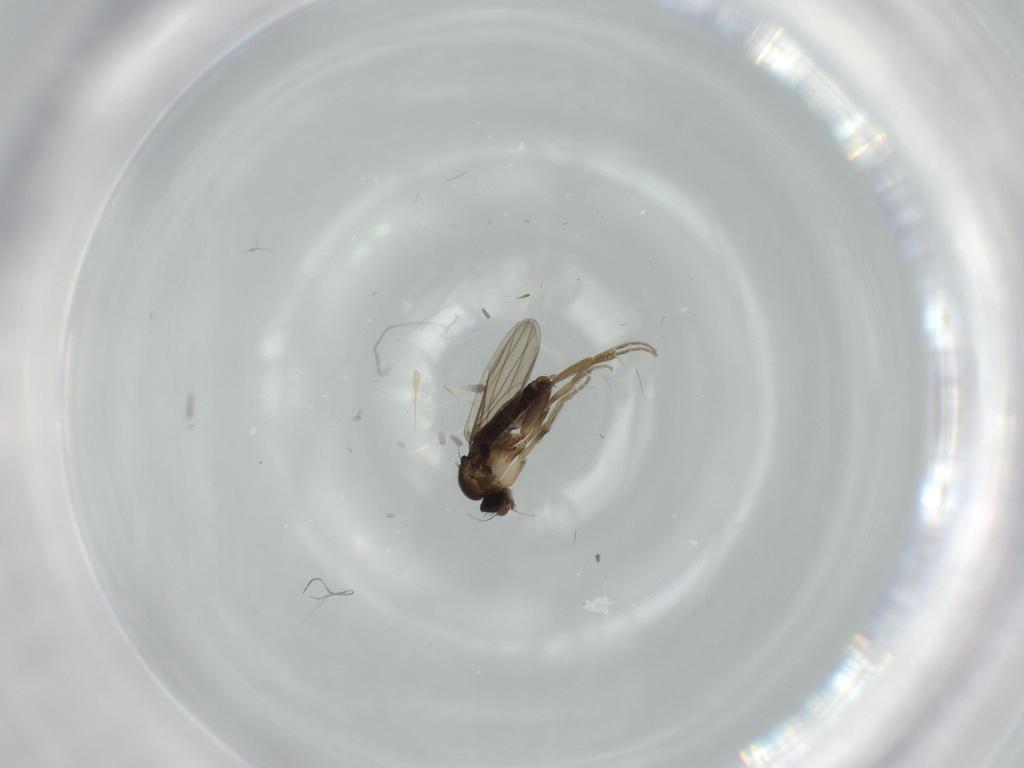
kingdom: Animalia
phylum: Arthropoda
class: Insecta
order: Diptera
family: Phoridae
